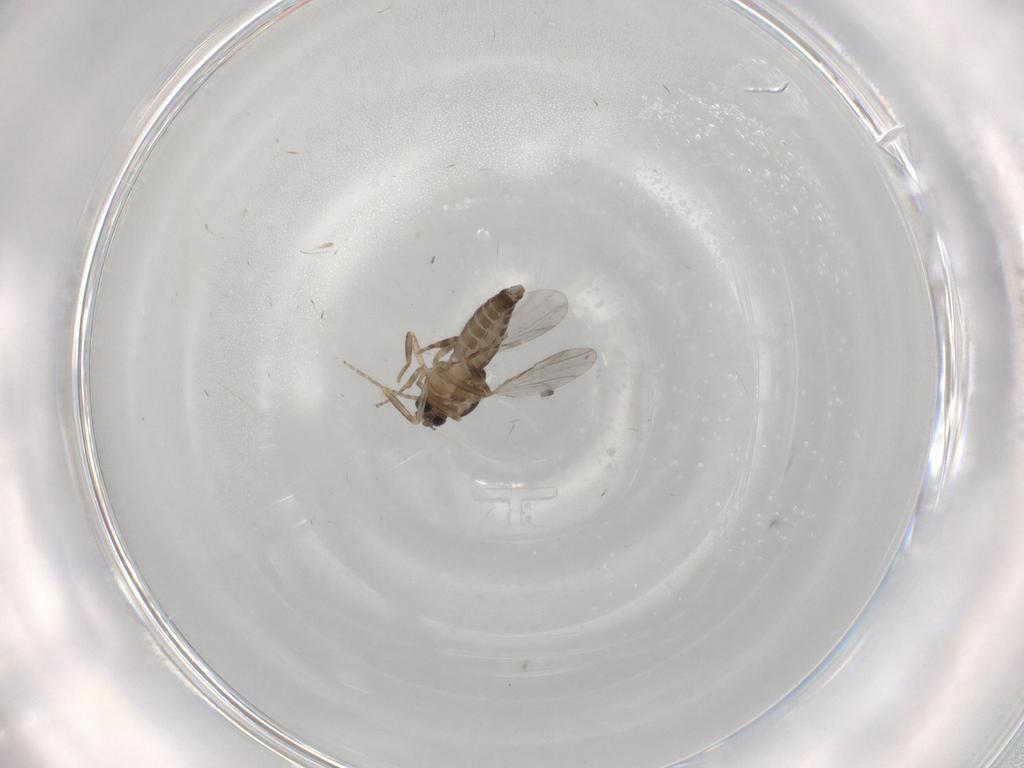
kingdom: Animalia
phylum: Arthropoda
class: Insecta
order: Diptera
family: Ceratopogonidae
